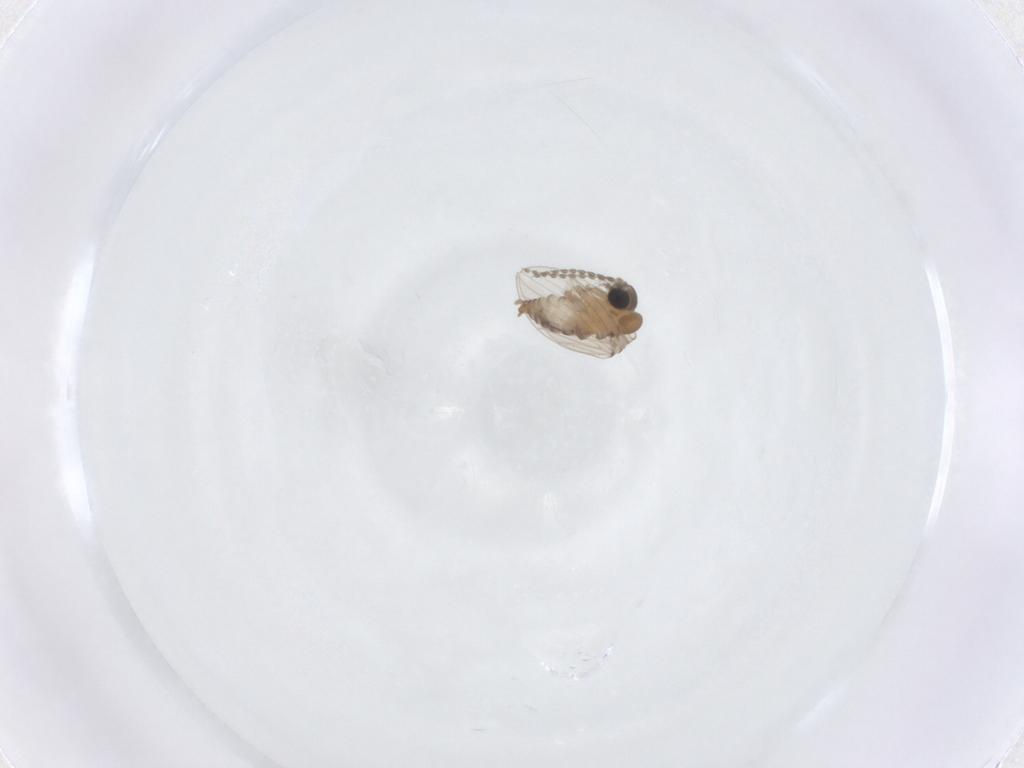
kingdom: Animalia
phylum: Arthropoda
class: Insecta
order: Diptera
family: Psychodidae
